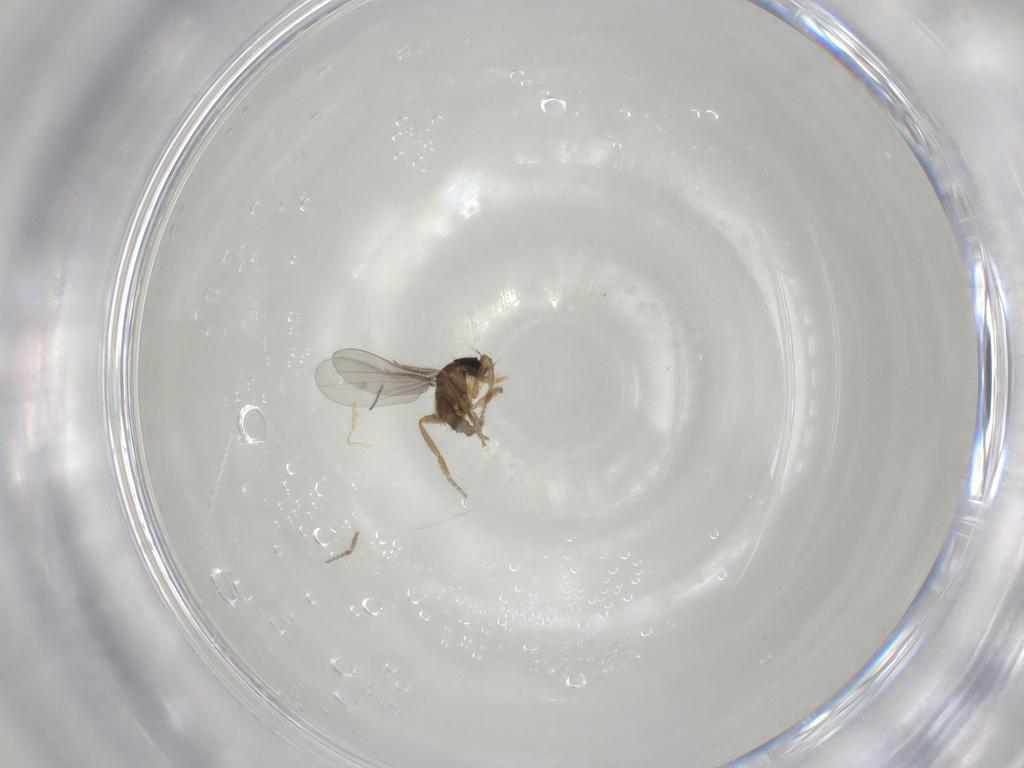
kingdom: Animalia
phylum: Arthropoda
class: Insecta
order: Diptera
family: Phoridae
